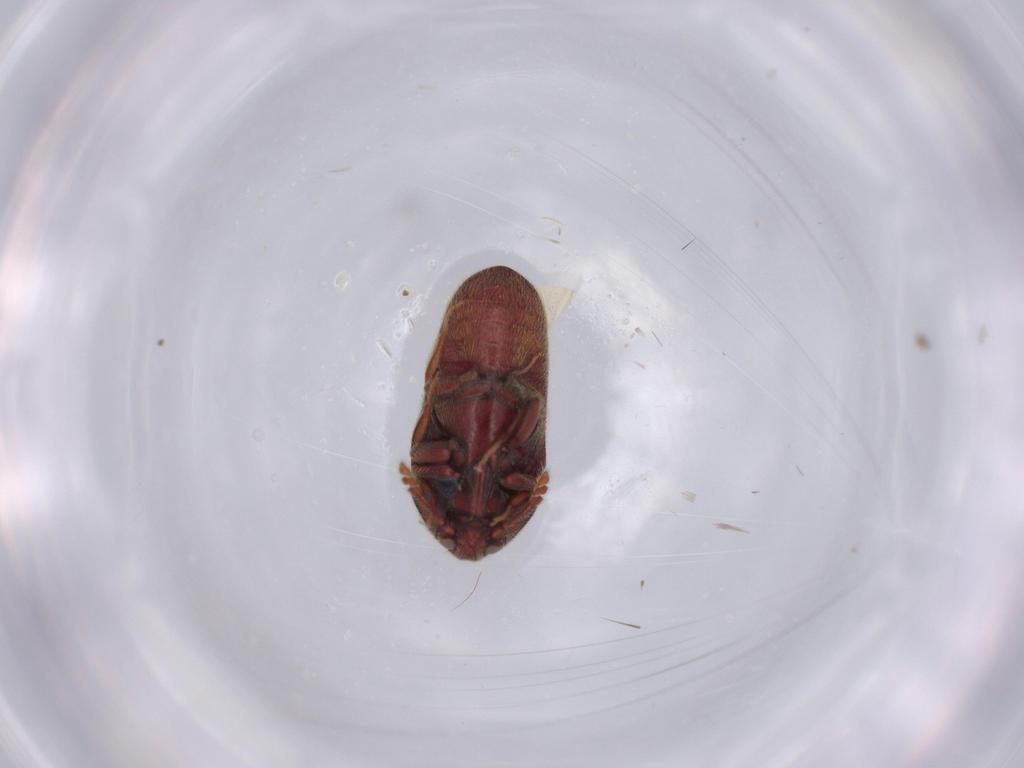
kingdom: Animalia
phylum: Arthropoda
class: Insecta
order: Coleoptera
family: Throscidae
